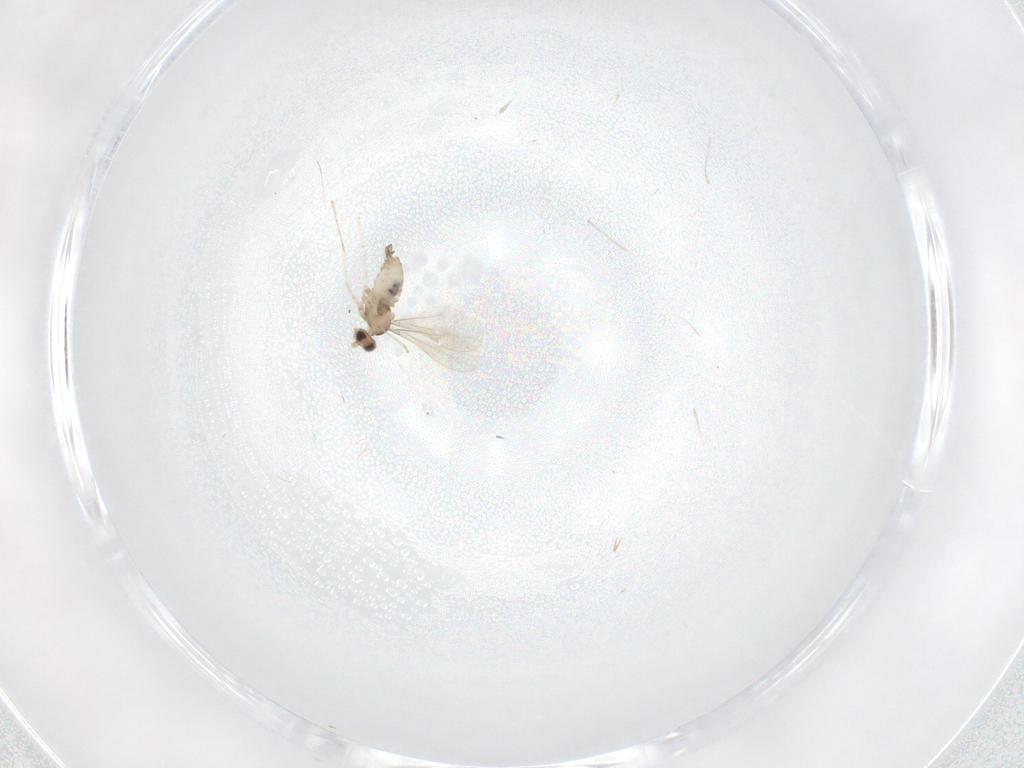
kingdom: Animalia
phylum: Arthropoda
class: Insecta
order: Diptera
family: Cecidomyiidae
